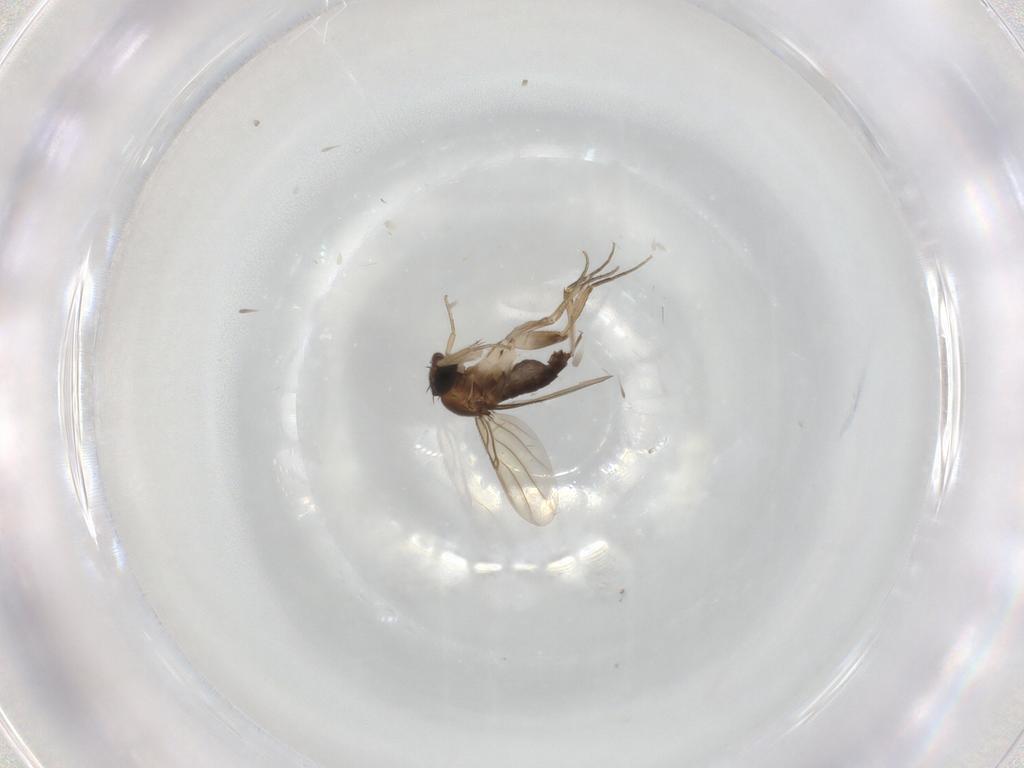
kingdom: Animalia
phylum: Arthropoda
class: Insecta
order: Diptera
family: Phoridae
